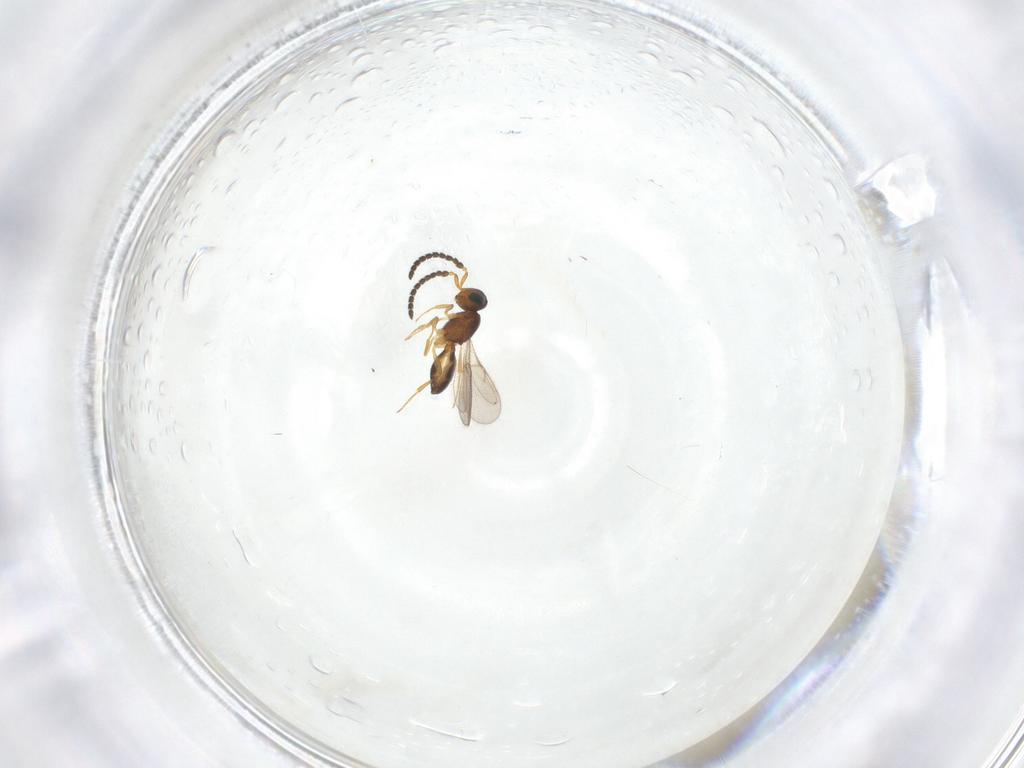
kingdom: Animalia
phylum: Arthropoda
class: Insecta
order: Hymenoptera
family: Scelionidae
